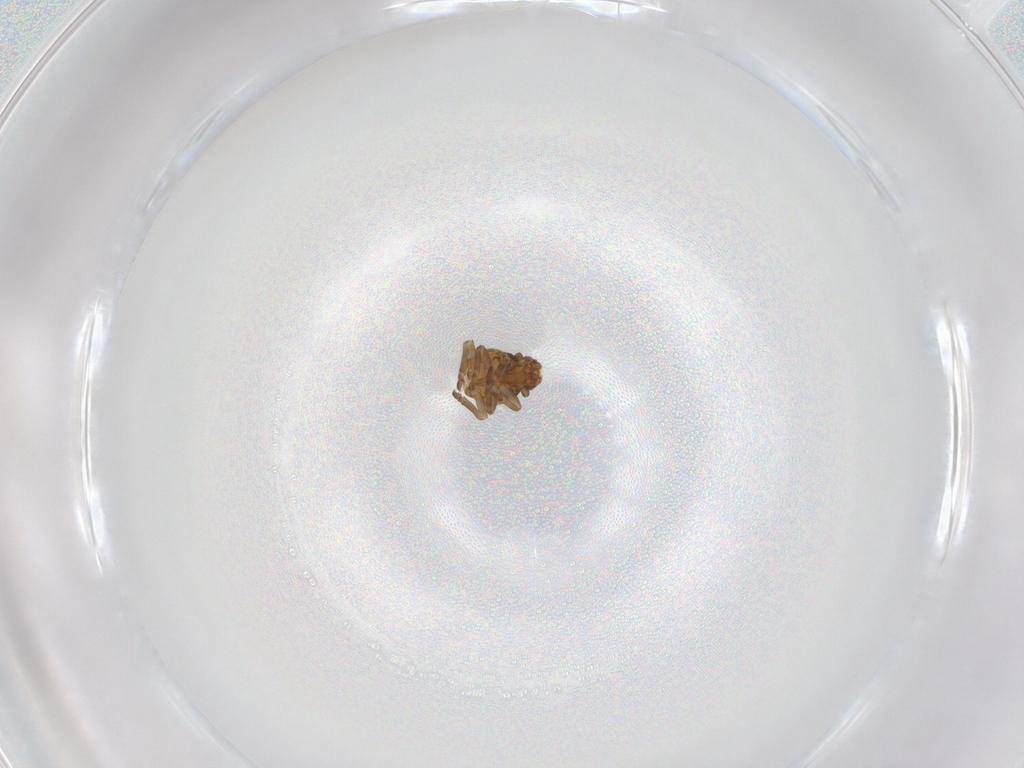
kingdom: Animalia
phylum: Arthropoda
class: Insecta
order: Hemiptera
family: Ricaniidae
